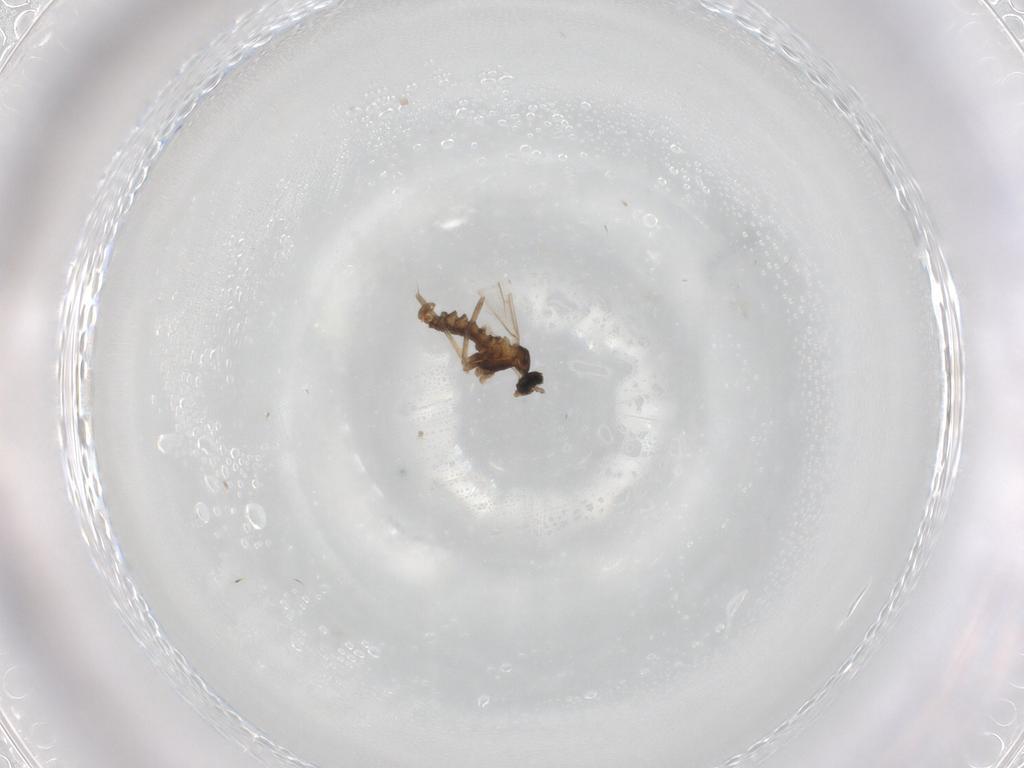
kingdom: Animalia
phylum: Arthropoda
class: Insecta
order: Diptera
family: Cecidomyiidae
